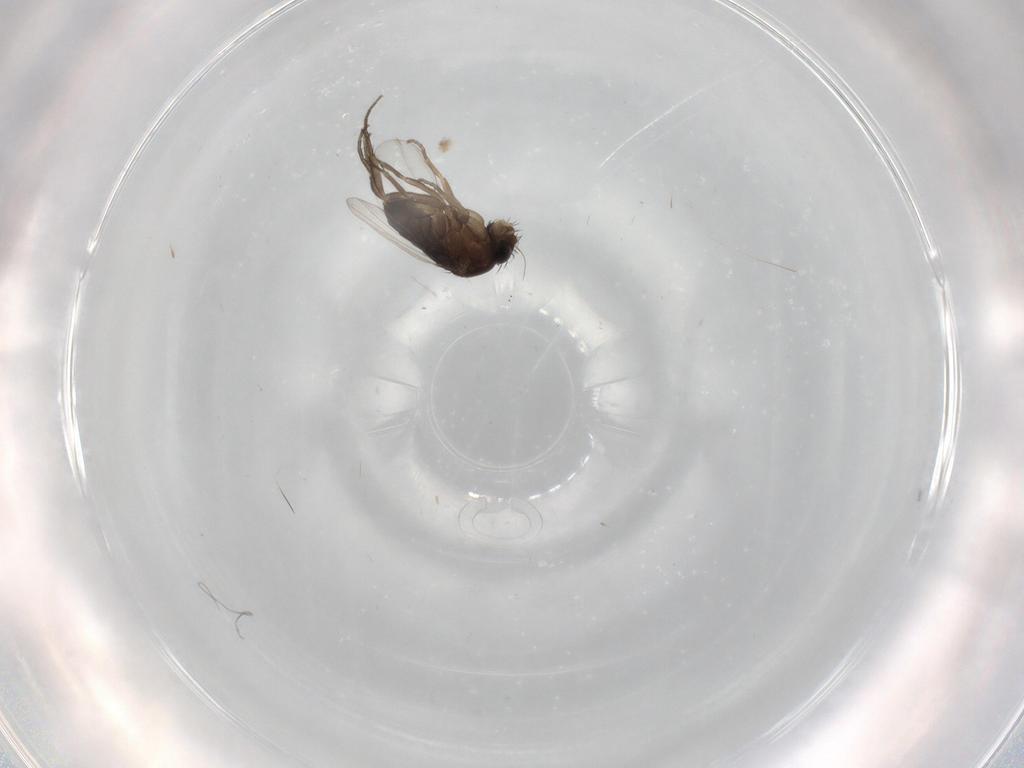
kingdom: Animalia
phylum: Arthropoda
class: Insecta
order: Diptera
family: Phoridae
